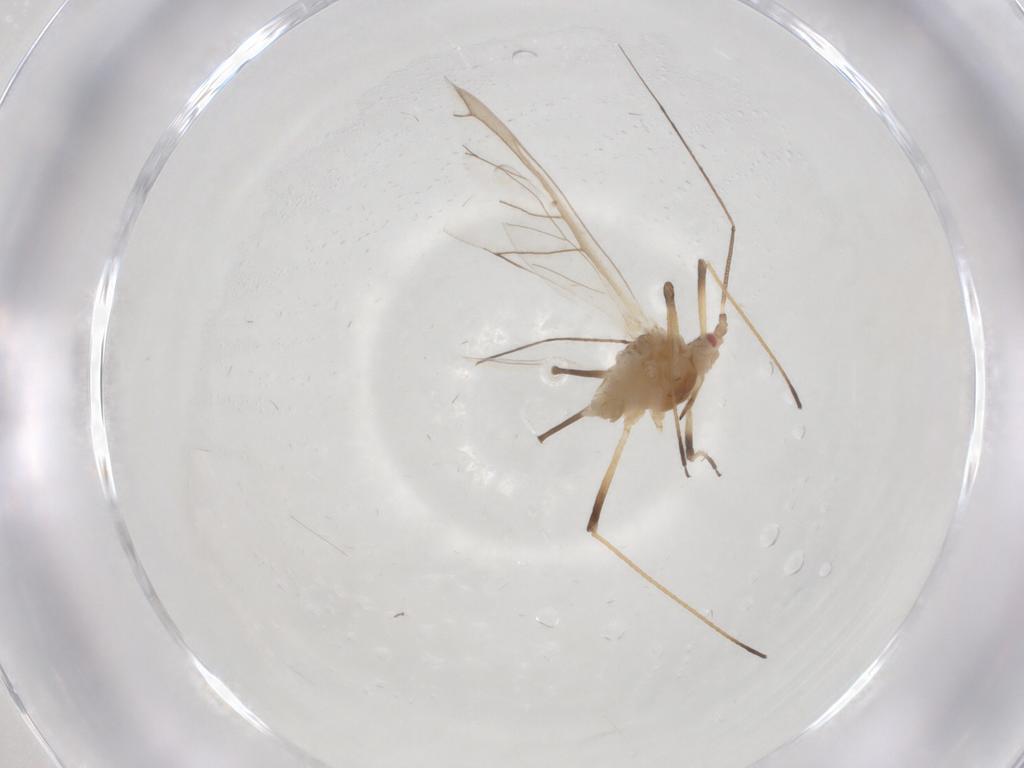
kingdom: Animalia
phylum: Arthropoda
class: Insecta
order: Hemiptera
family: Aphididae
